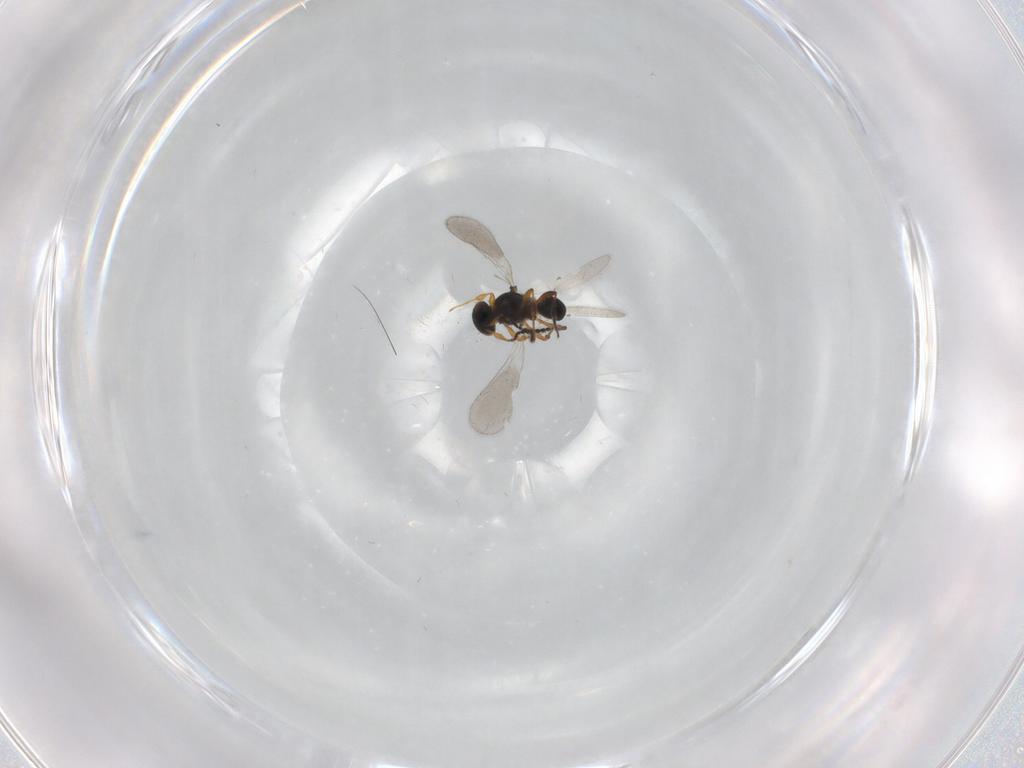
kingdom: Animalia
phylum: Arthropoda
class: Insecta
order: Hymenoptera
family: Platygastridae
